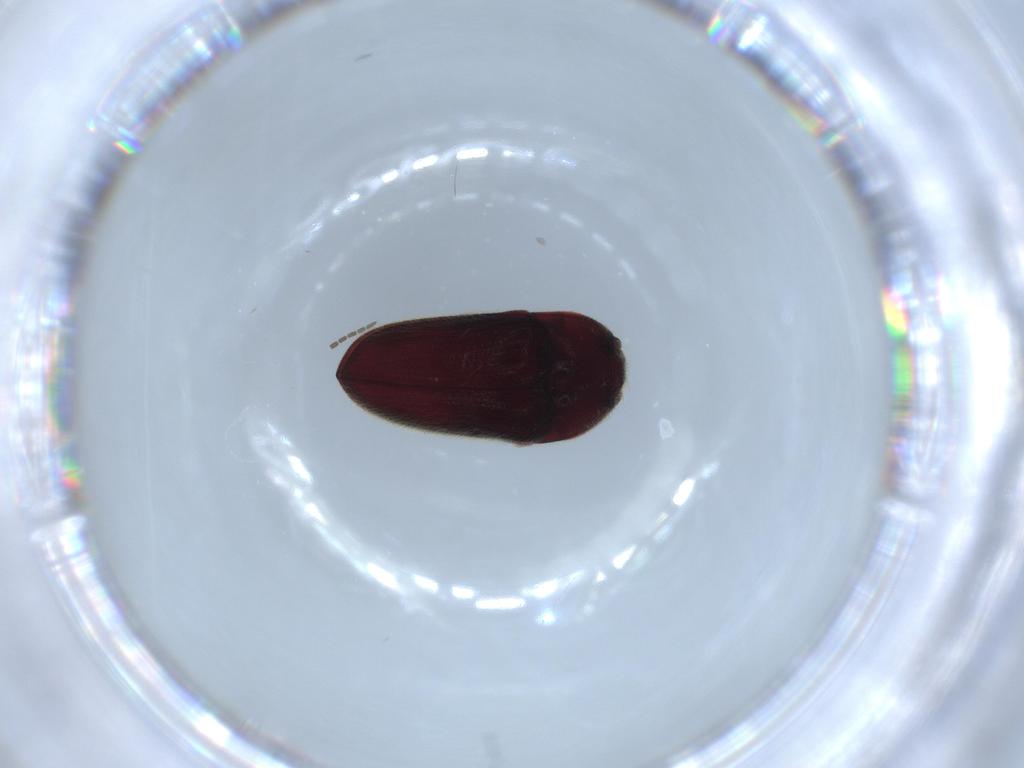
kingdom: Animalia
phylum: Arthropoda
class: Insecta
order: Coleoptera
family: Throscidae
